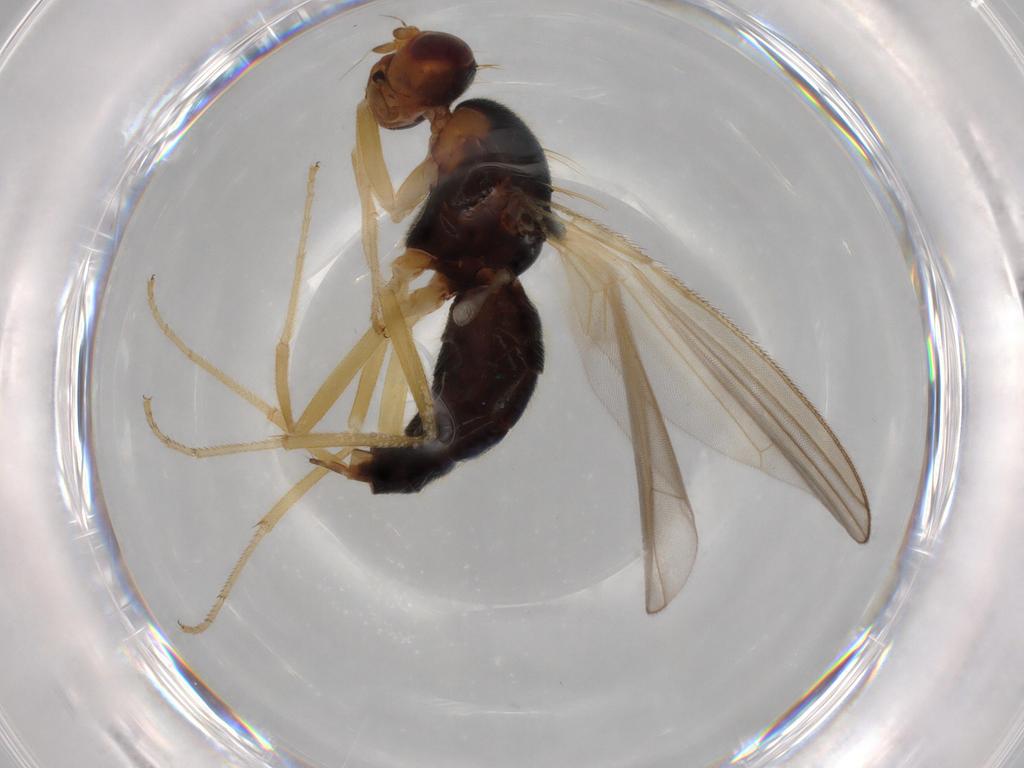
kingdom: Animalia
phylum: Arthropoda
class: Insecta
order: Diptera
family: Psilidae
